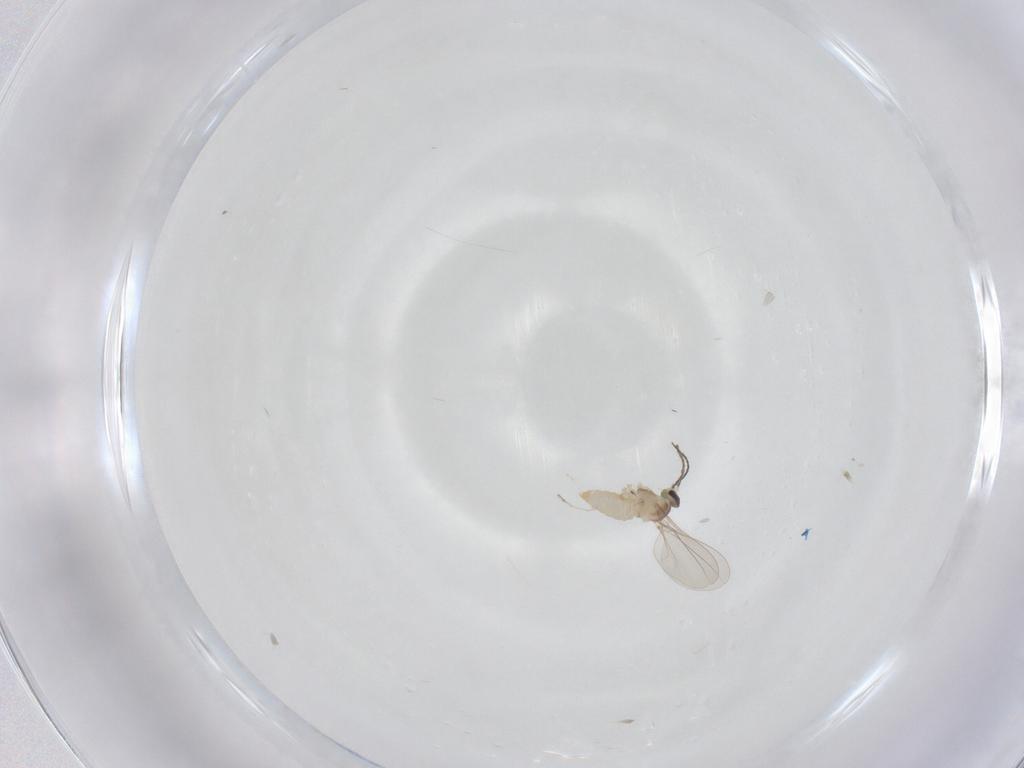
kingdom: Animalia
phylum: Arthropoda
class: Insecta
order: Diptera
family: Cecidomyiidae
